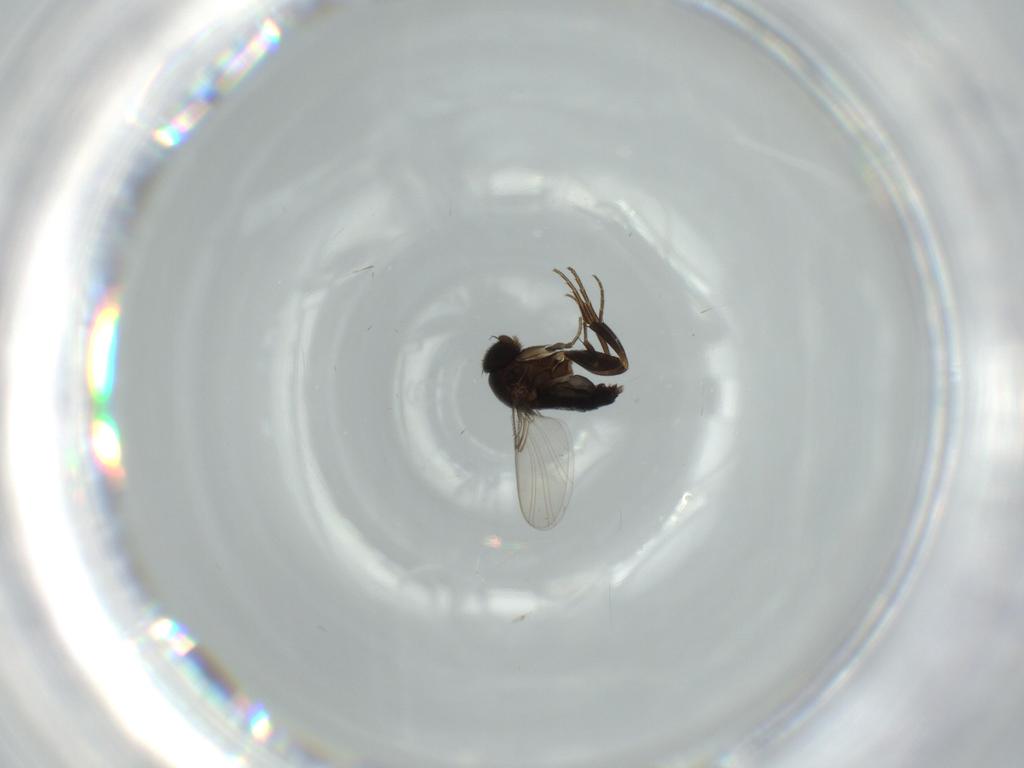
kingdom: Animalia
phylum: Arthropoda
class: Insecta
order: Diptera
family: Phoridae
